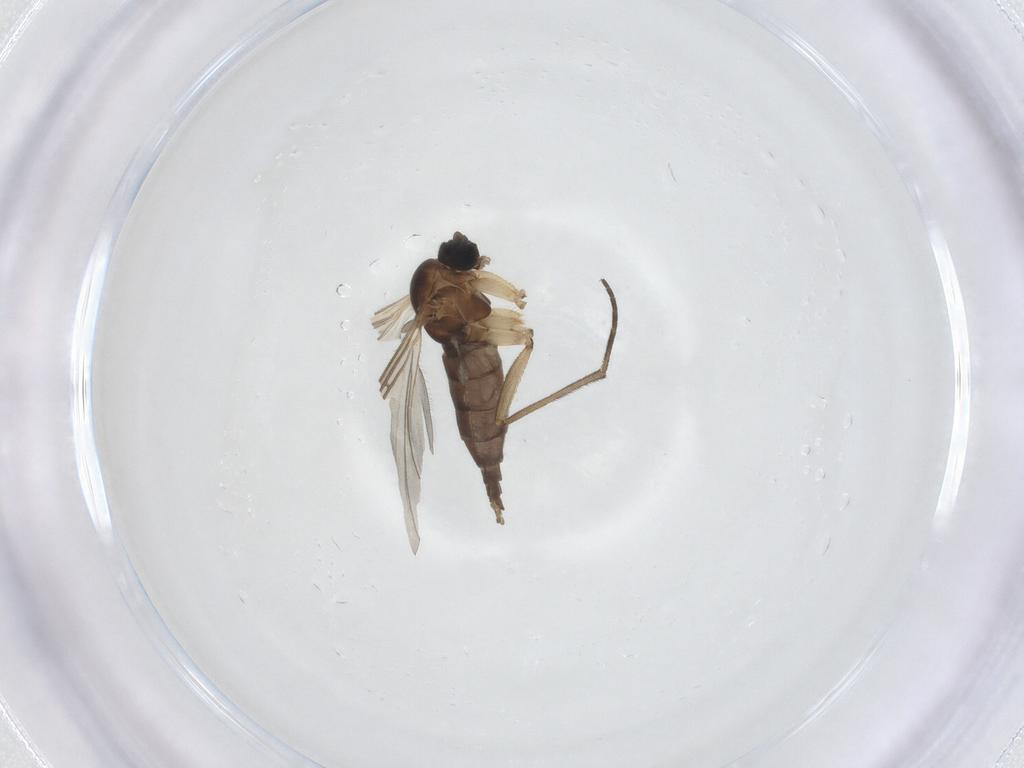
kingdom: Animalia
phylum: Arthropoda
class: Insecta
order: Diptera
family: Sciaridae
